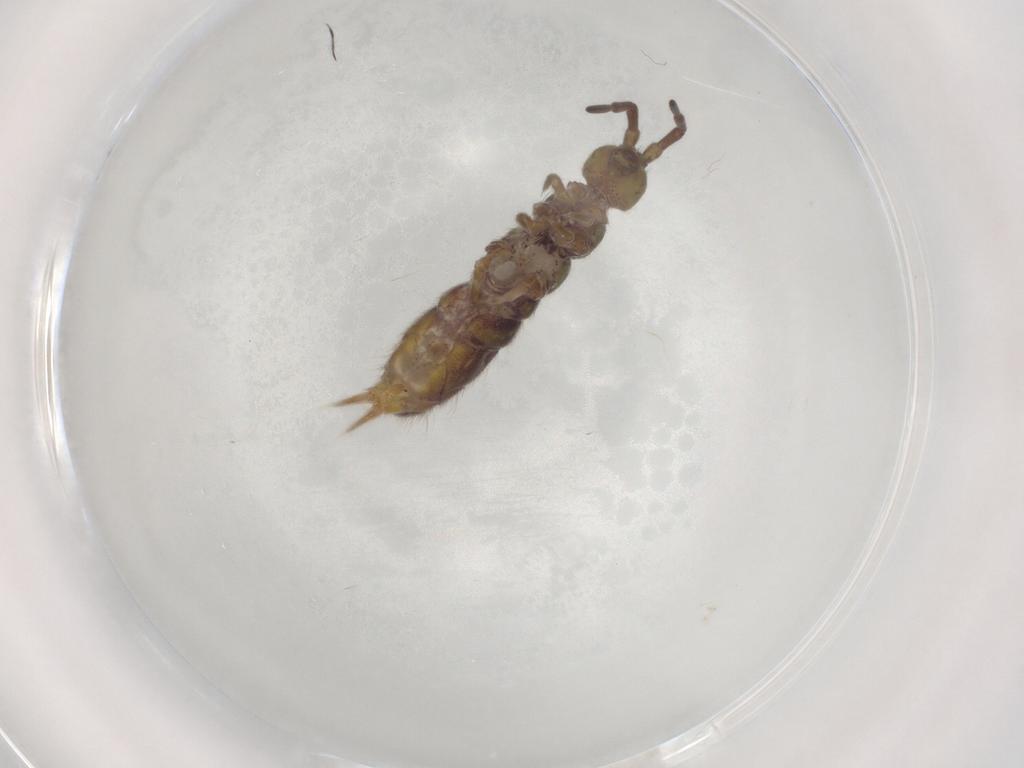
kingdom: Animalia
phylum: Arthropoda
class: Collembola
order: Entomobryomorpha
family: Isotomidae
